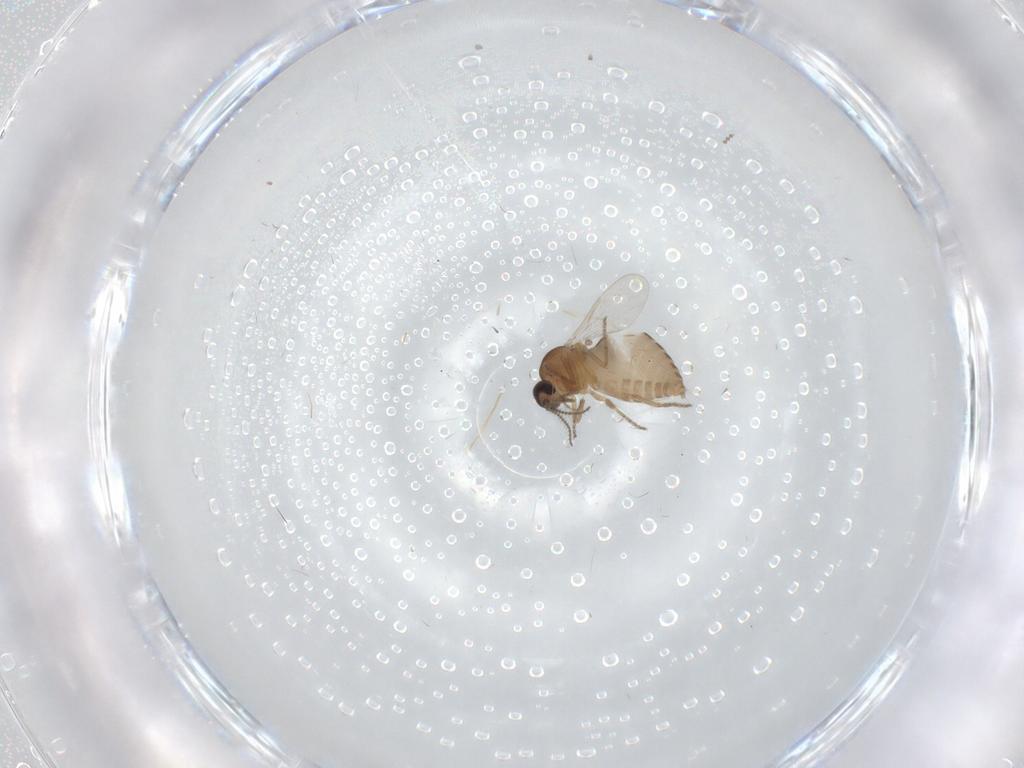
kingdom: Animalia
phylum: Arthropoda
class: Insecta
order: Diptera
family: Ceratopogonidae
